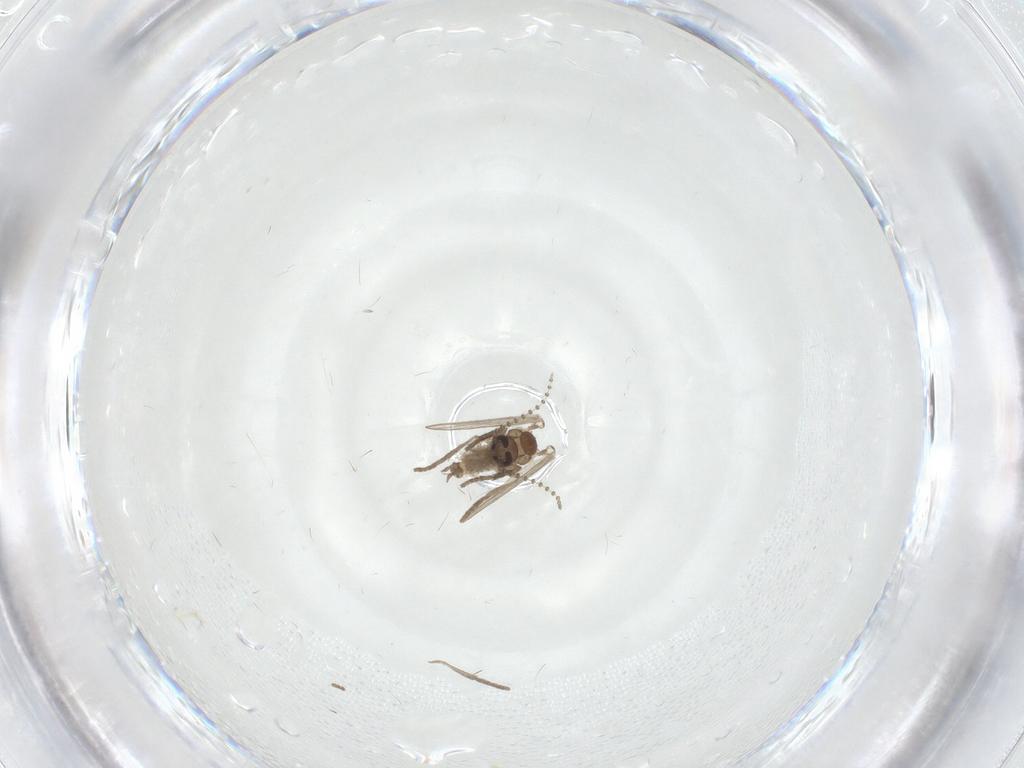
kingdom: Animalia
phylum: Arthropoda
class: Insecta
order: Diptera
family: Psychodidae
